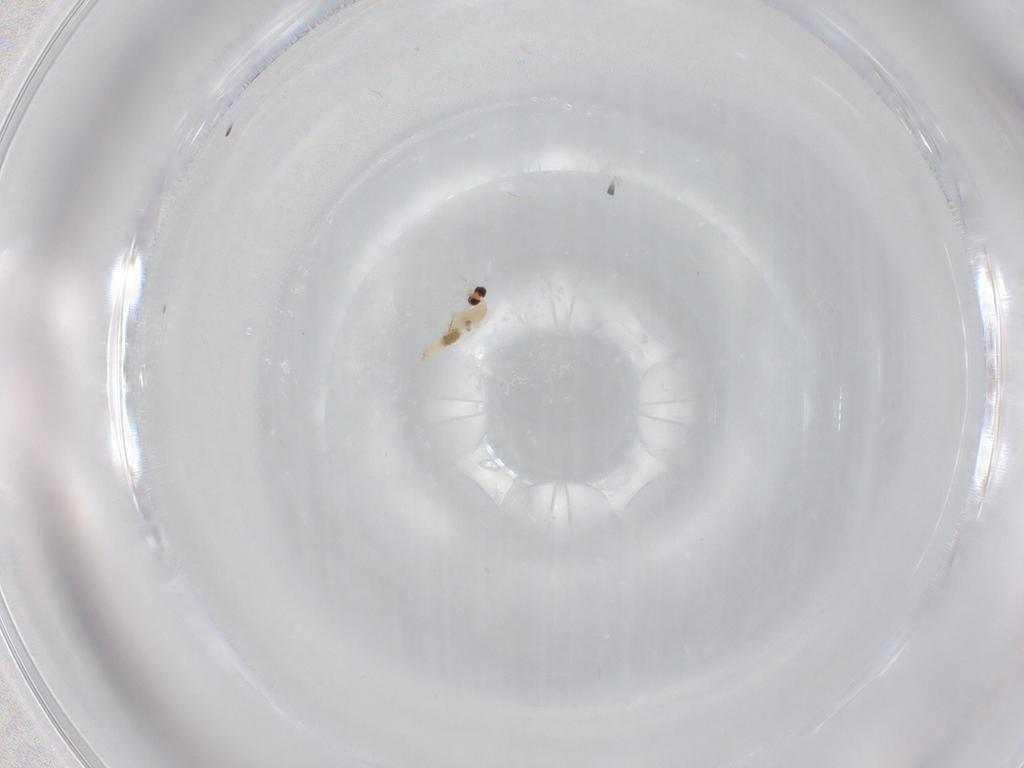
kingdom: Animalia
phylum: Arthropoda
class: Insecta
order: Diptera
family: Cecidomyiidae
